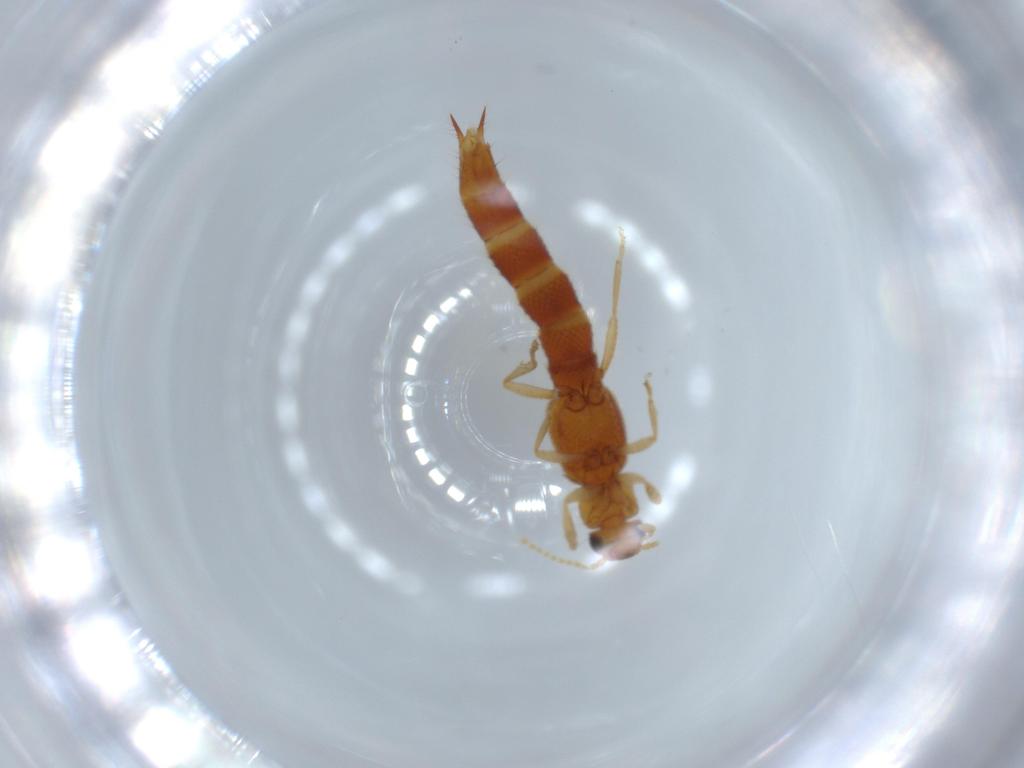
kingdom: Animalia
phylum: Arthropoda
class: Insecta
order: Coleoptera
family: Staphylinidae
